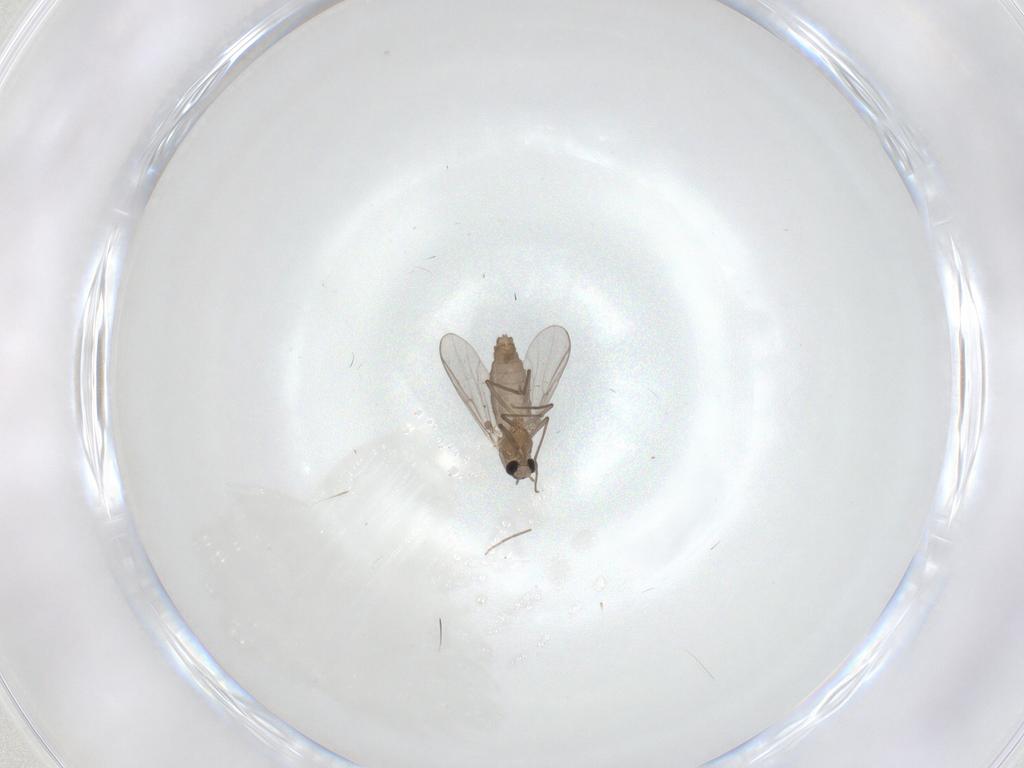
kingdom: Animalia
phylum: Arthropoda
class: Insecta
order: Diptera
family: Chironomidae
